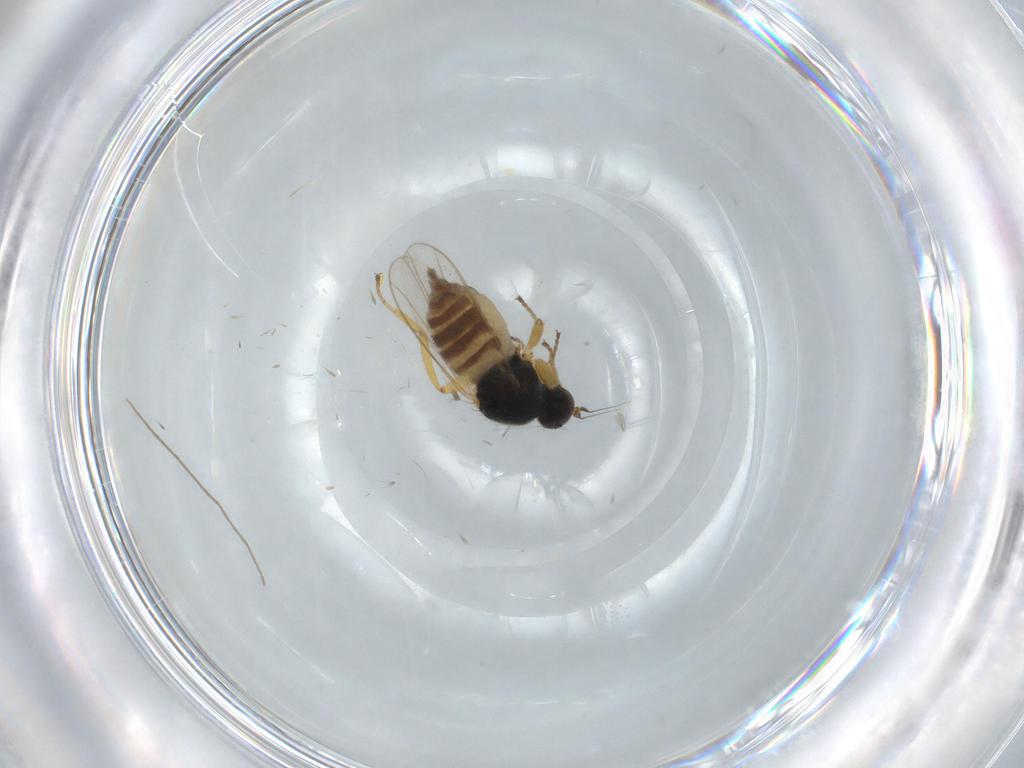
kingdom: Animalia
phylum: Arthropoda
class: Insecta
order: Diptera
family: Hybotidae
